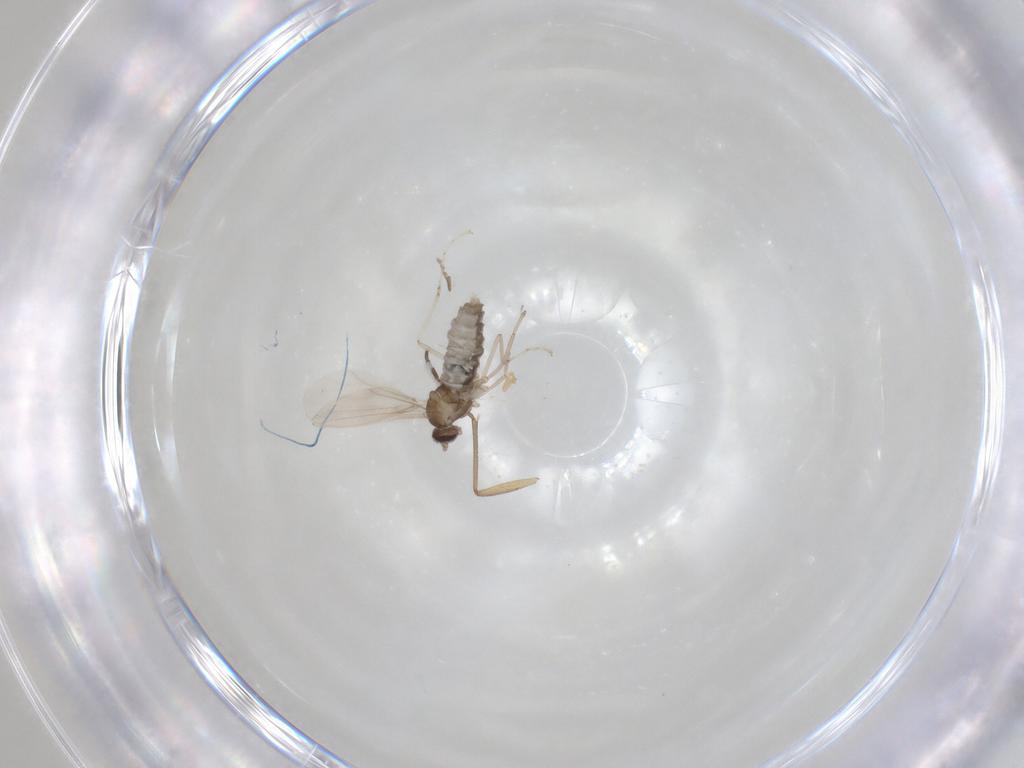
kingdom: Animalia
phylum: Arthropoda
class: Insecta
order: Diptera
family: Cecidomyiidae
